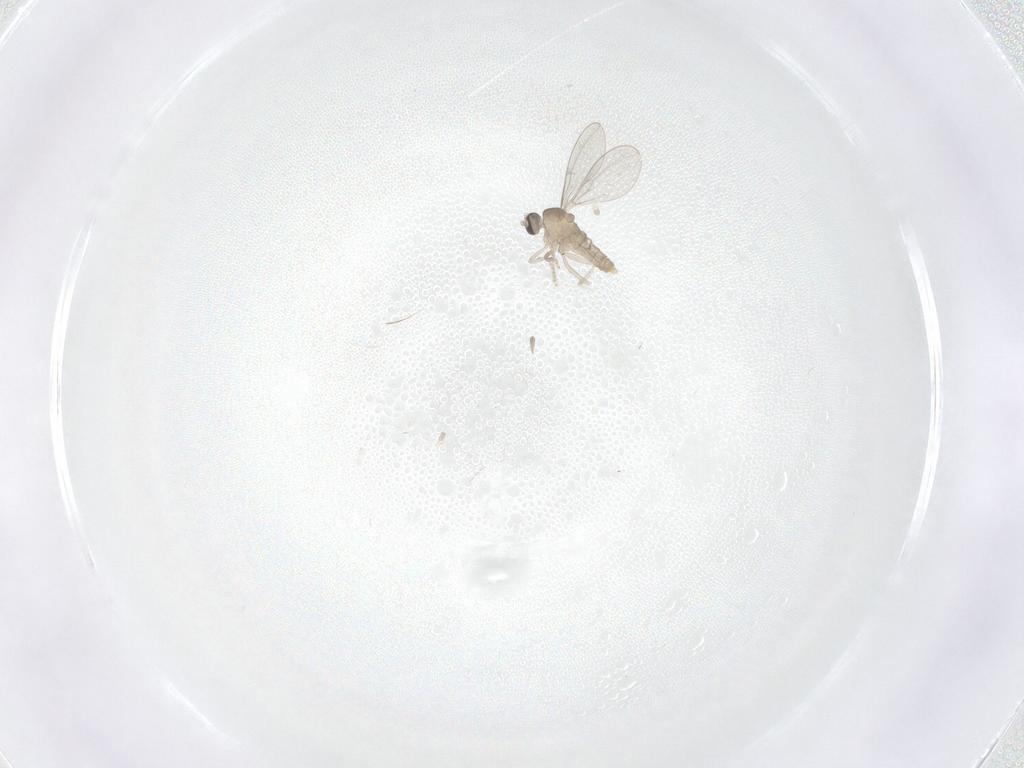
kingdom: Animalia
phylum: Arthropoda
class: Insecta
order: Diptera
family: Cecidomyiidae
